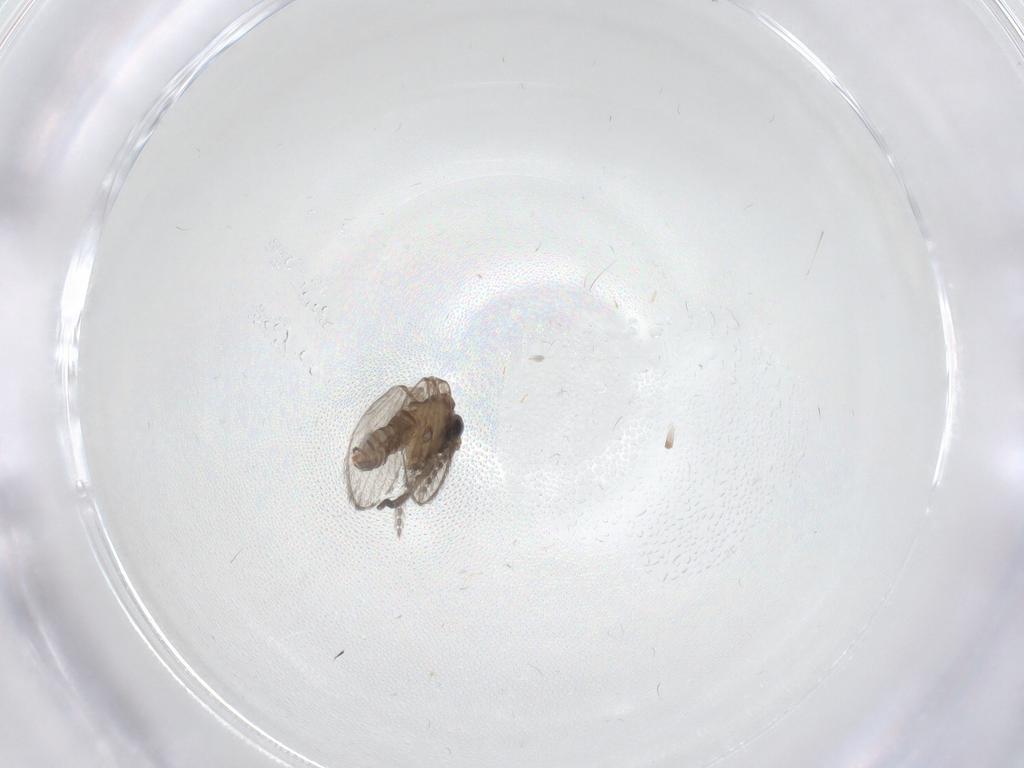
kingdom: Animalia
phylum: Arthropoda
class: Insecta
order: Diptera
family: Psychodidae
